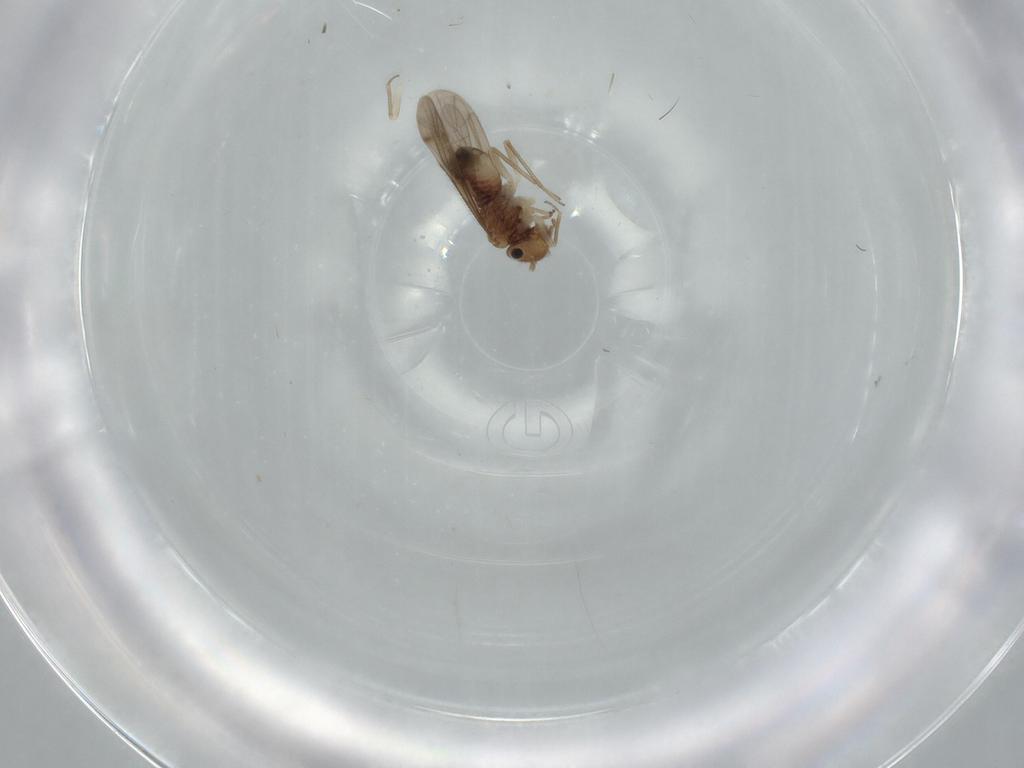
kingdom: Animalia
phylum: Arthropoda
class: Insecta
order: Psocodea
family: Ectopsocidae
